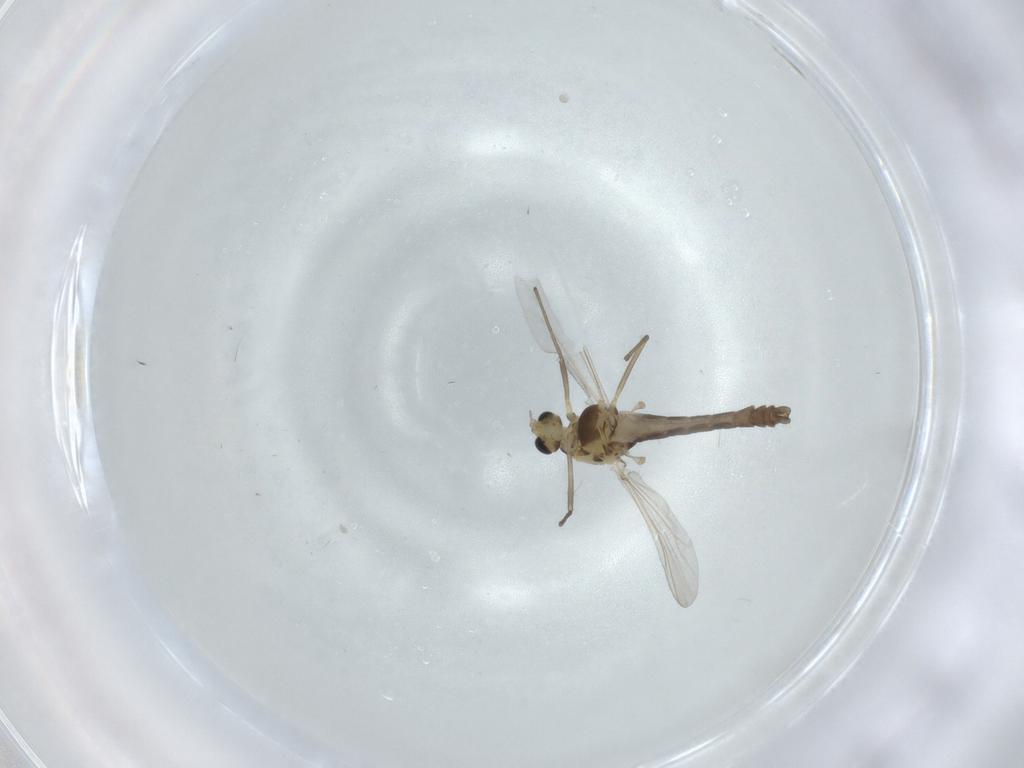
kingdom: Animalia
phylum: Arthropoda
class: Insecta
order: Diptera
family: Chironomidae
